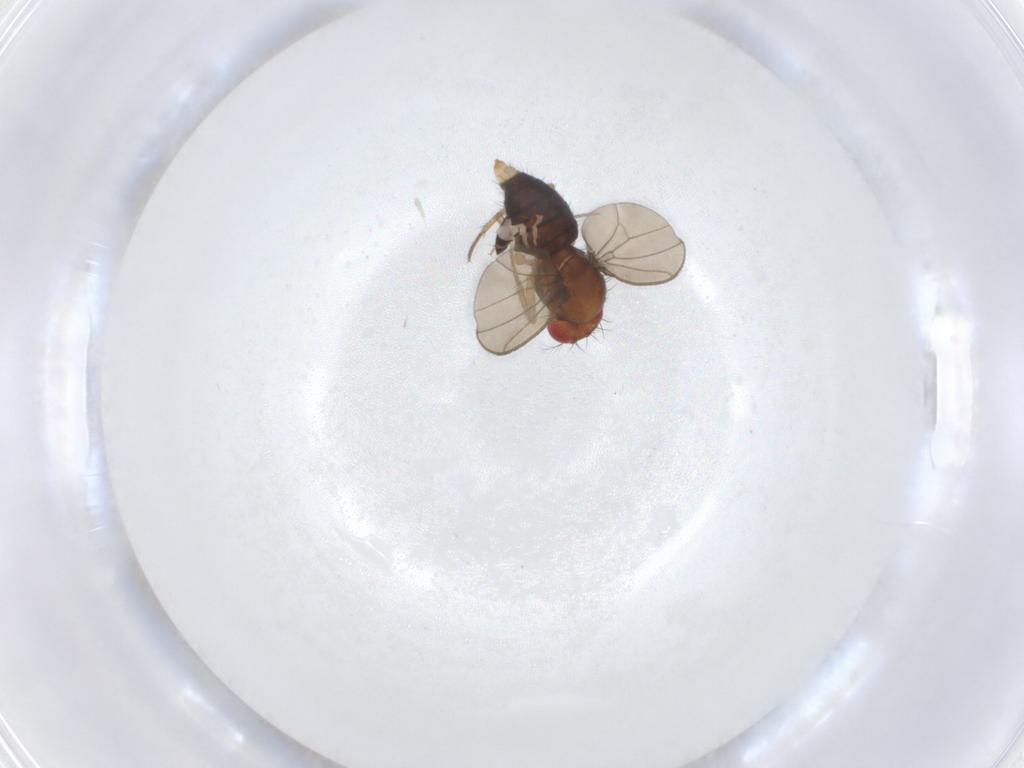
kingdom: Animalia
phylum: Arthropoda
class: Insecta
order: Diptera
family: Drosophilidae
